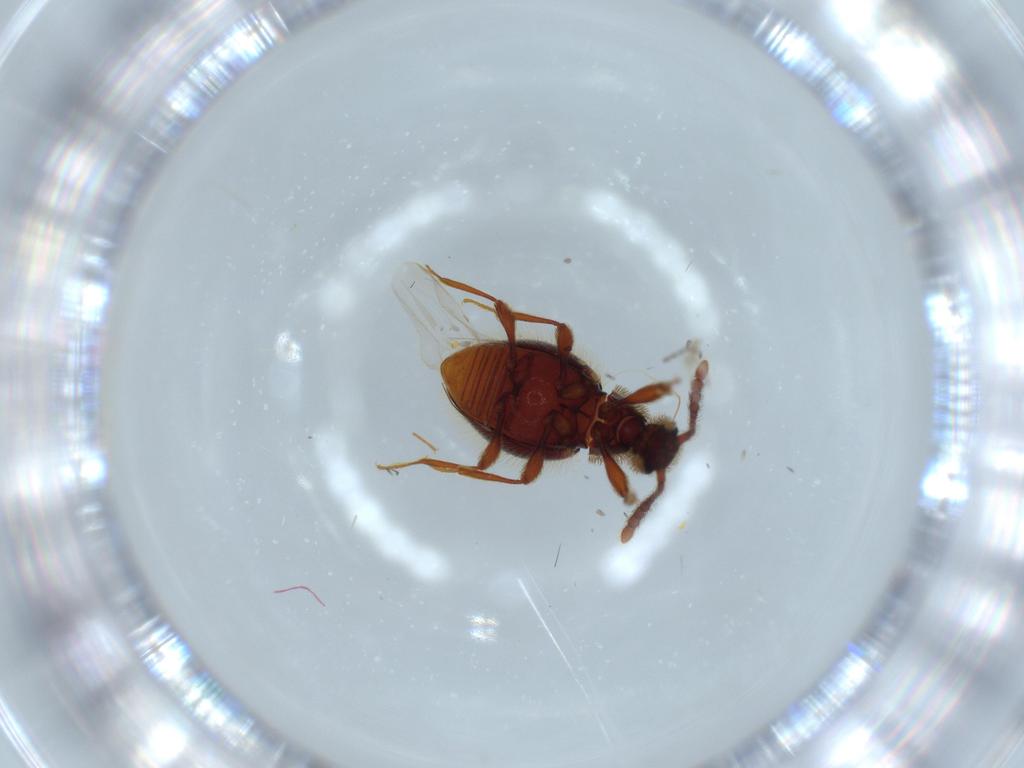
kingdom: Animalia
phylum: Arthropoda
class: Insecta
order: Coleoptera
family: Staphylinidae
